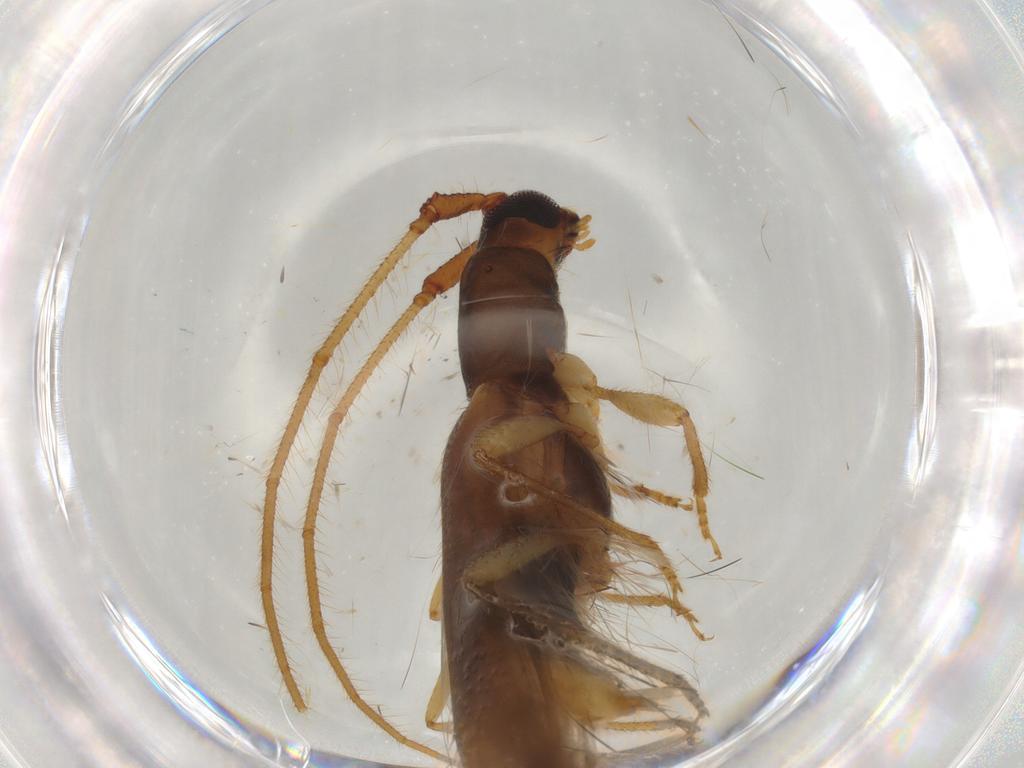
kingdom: Animalia
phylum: Arthropoda
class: Insecta
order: Coleoptera
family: Cerambycidae
